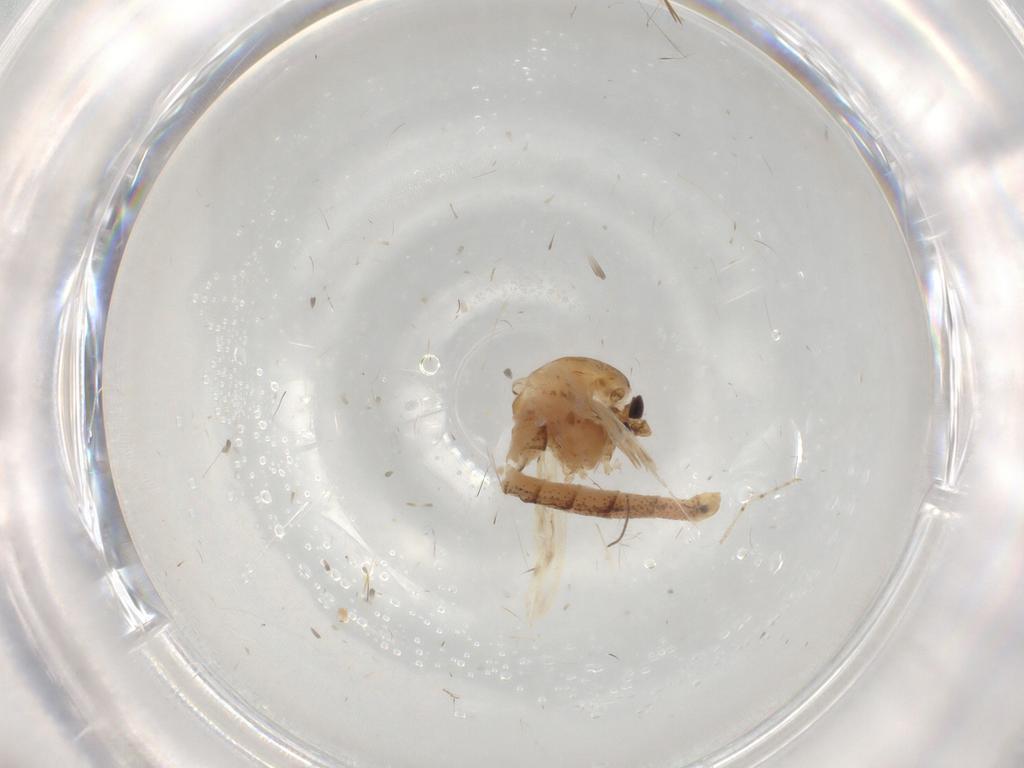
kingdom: Animalia
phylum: Arthropoda
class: Insecta
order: Diptera
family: Chaoboridae
